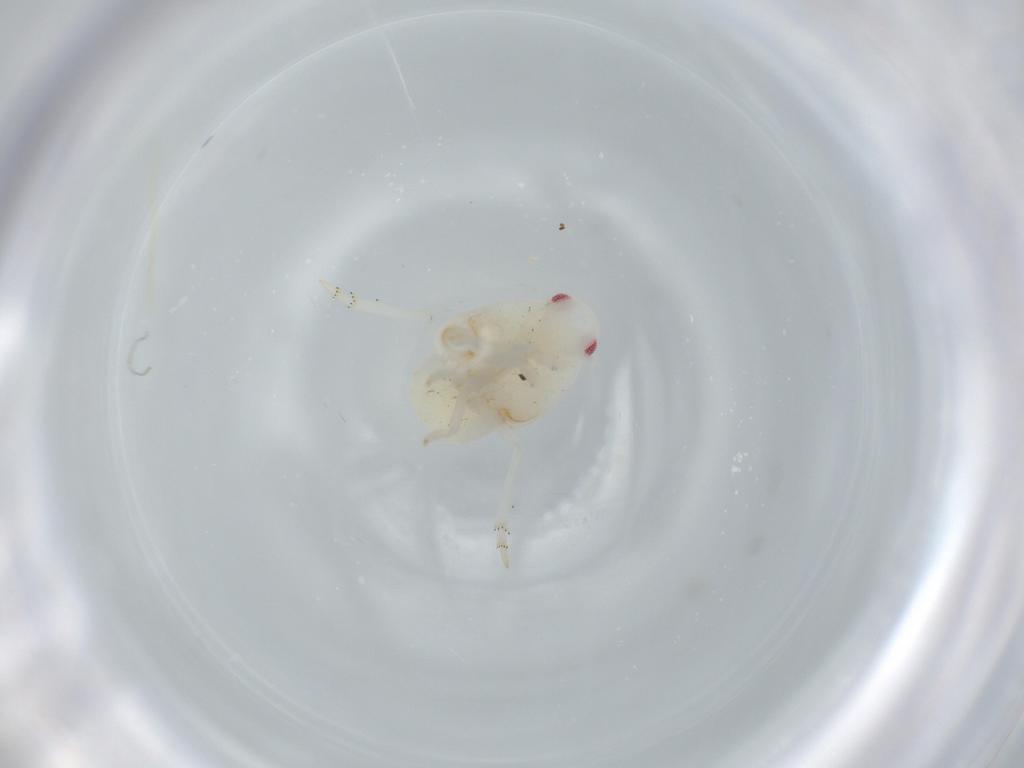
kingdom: Animalia
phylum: Arthropoda
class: Insecta
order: Hemiptera
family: Flatidae
